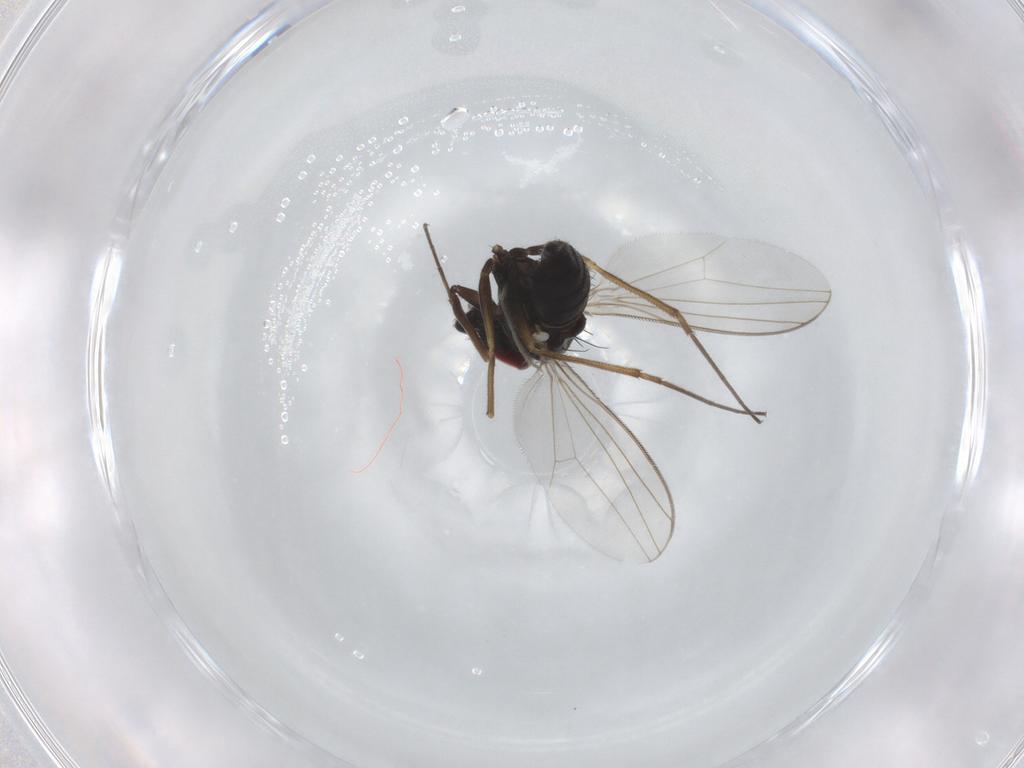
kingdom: Animalia
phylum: Arthropoda
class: Insecta
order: Diptera
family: Dolichopodidae
